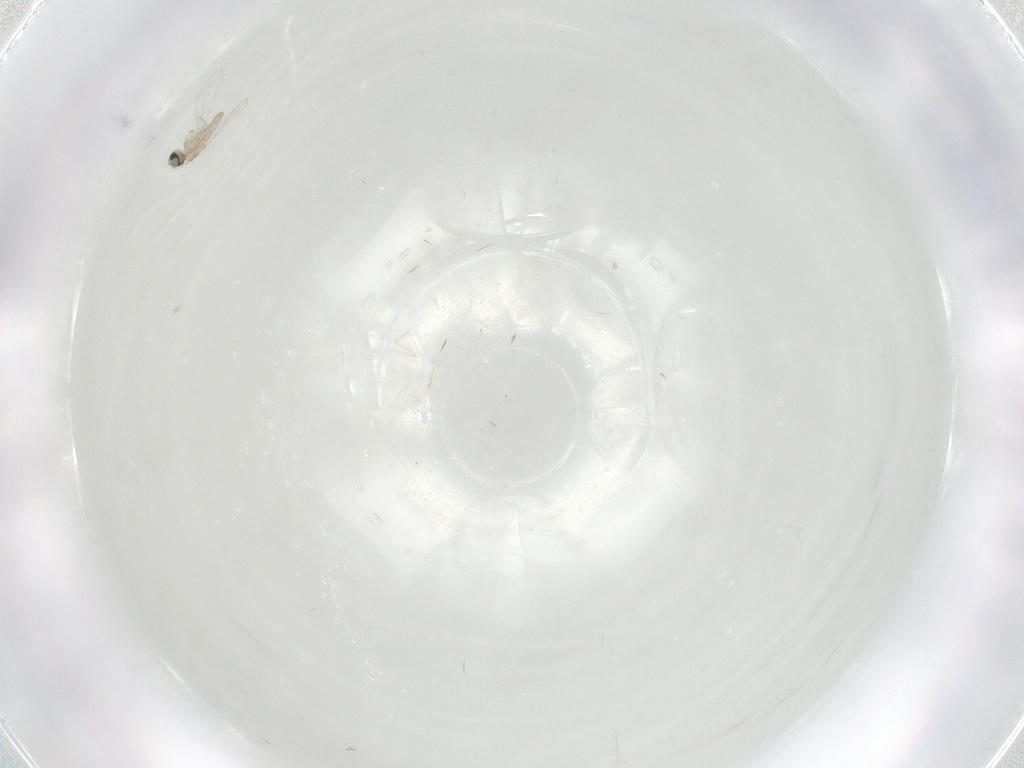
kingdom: Animalia
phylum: Arthropoda
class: Insecta
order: Diptera
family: Cecidomyiidae
